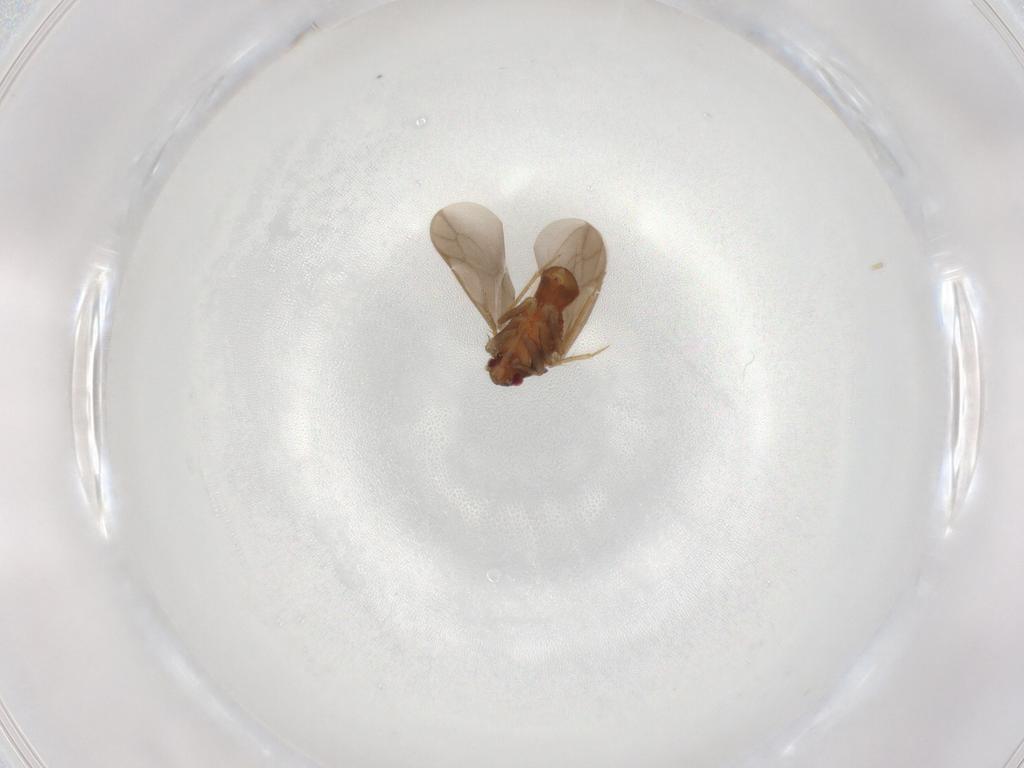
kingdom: Animalia
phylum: Arthropoda
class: Insecta
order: Hemiptera
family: Ceratocombidae
